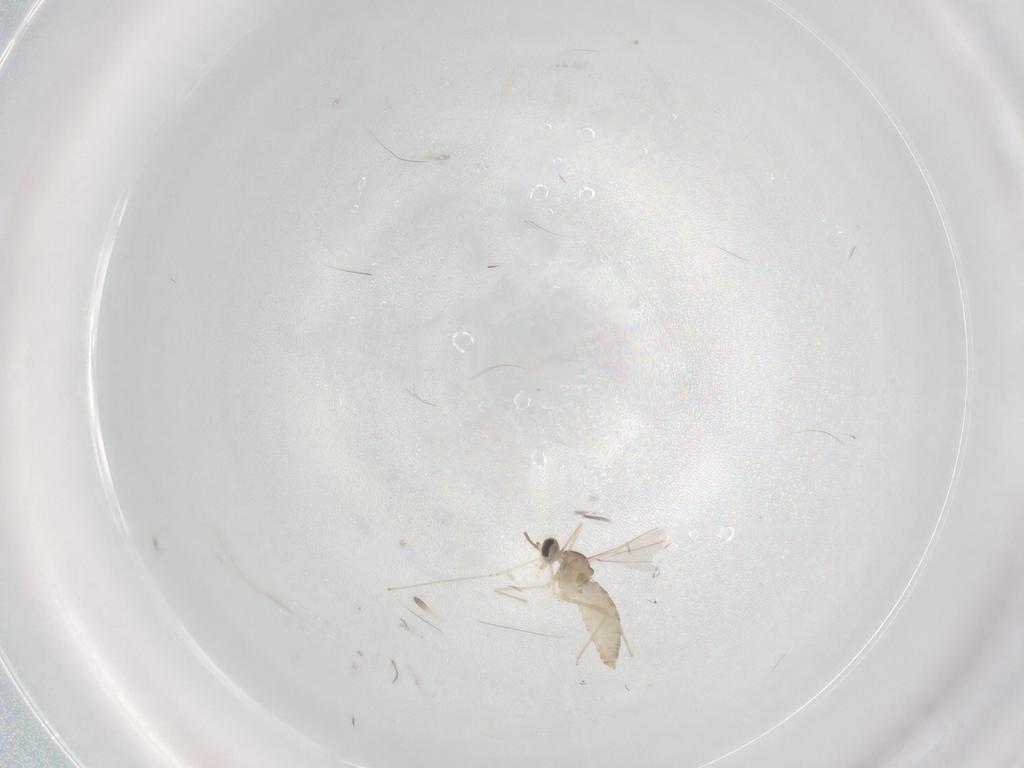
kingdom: Animalia
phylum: Arthropoda
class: Insecta
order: Diptera
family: Cecidomyiidae
